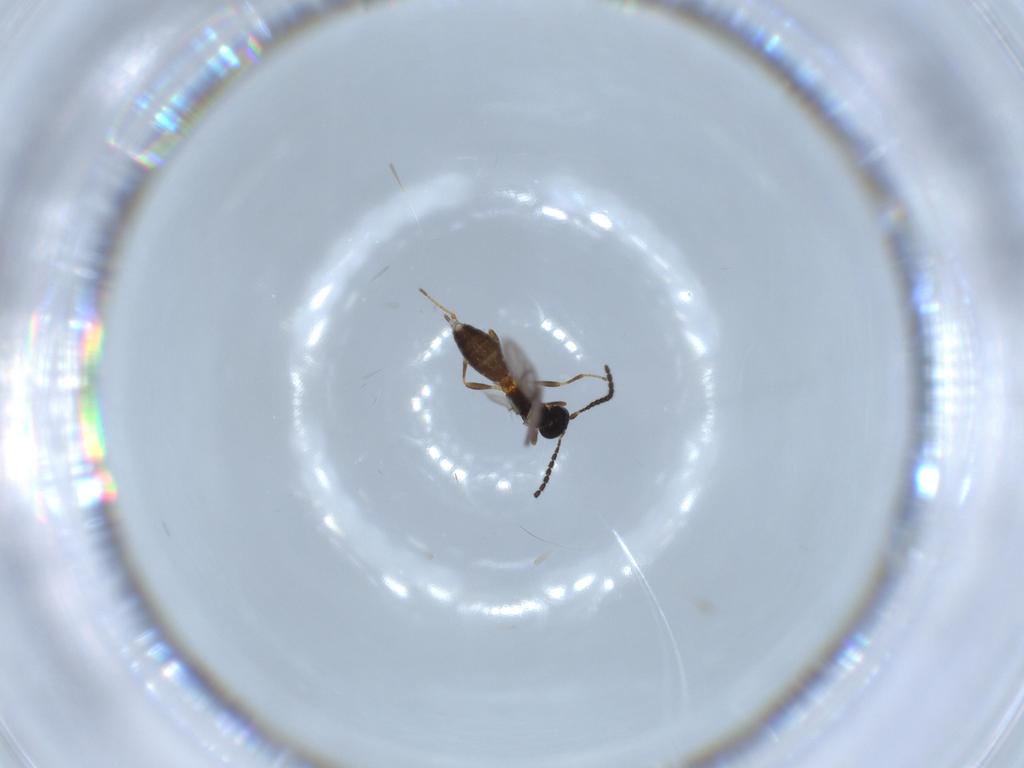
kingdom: Animalia
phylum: Arthropoda
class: Insecta
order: Hymenoptera
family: Braconidae
